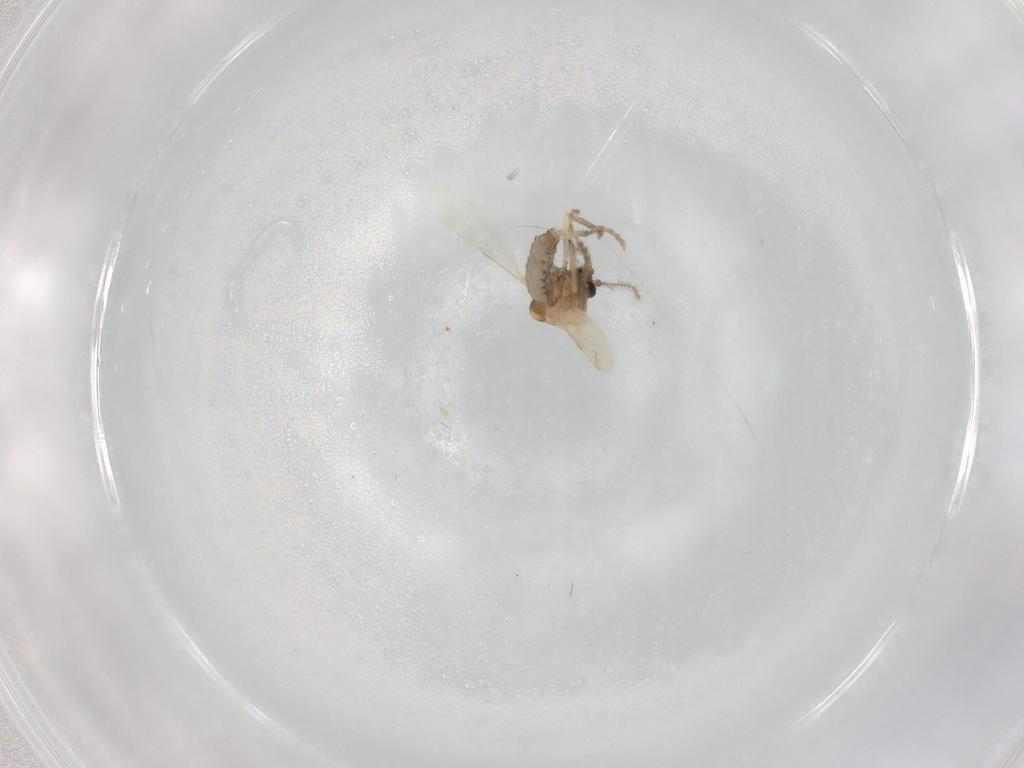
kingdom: Animalia
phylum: Arthropoda
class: Insecta
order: Diptera
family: Ceratopogonidae
